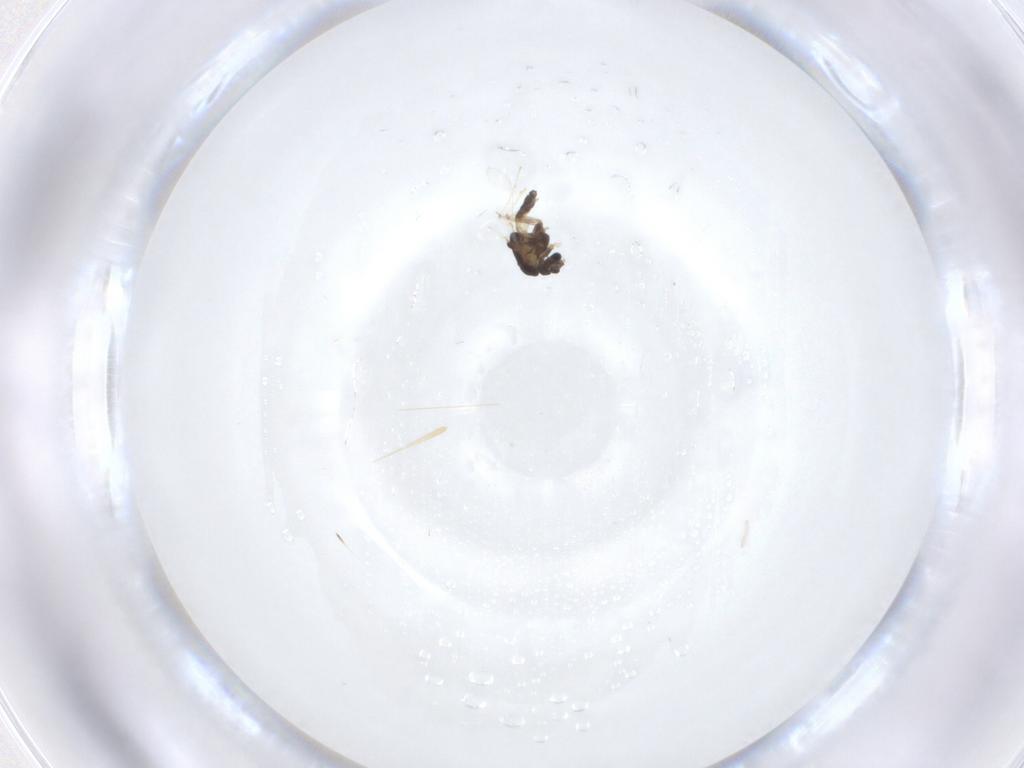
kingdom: Animalia
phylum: Arthropoda
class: Insecta
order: Diptera
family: Chironomidae
